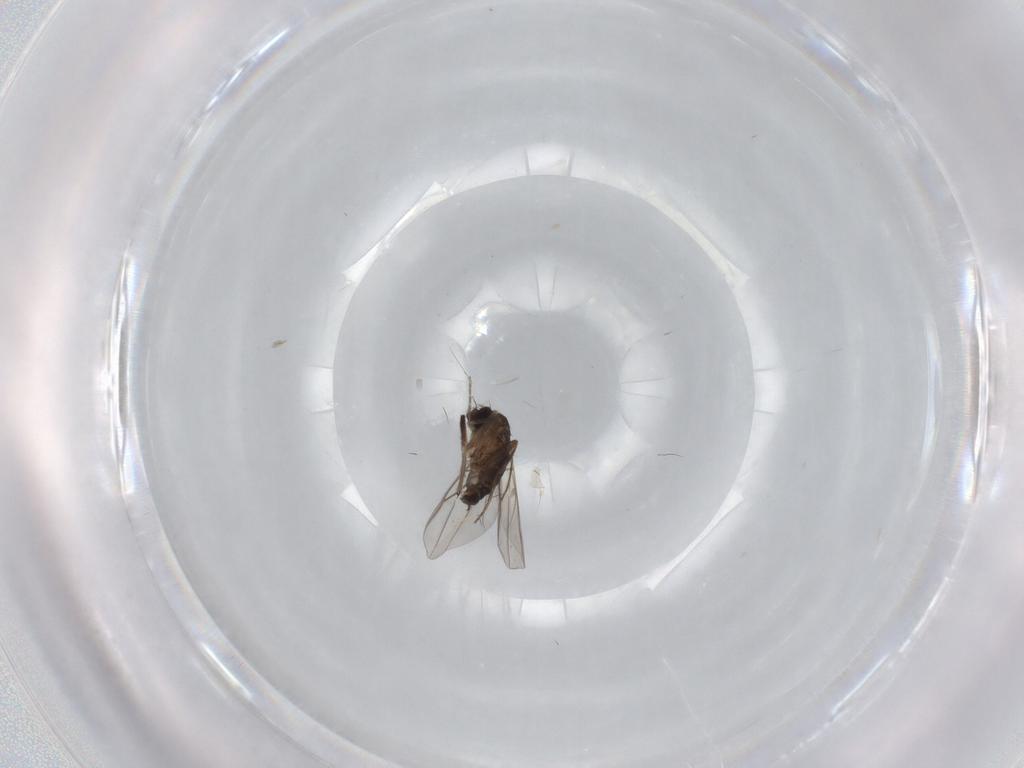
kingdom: Animalia
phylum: Arthropoda
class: Insecta
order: Diptera
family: Phoridae
